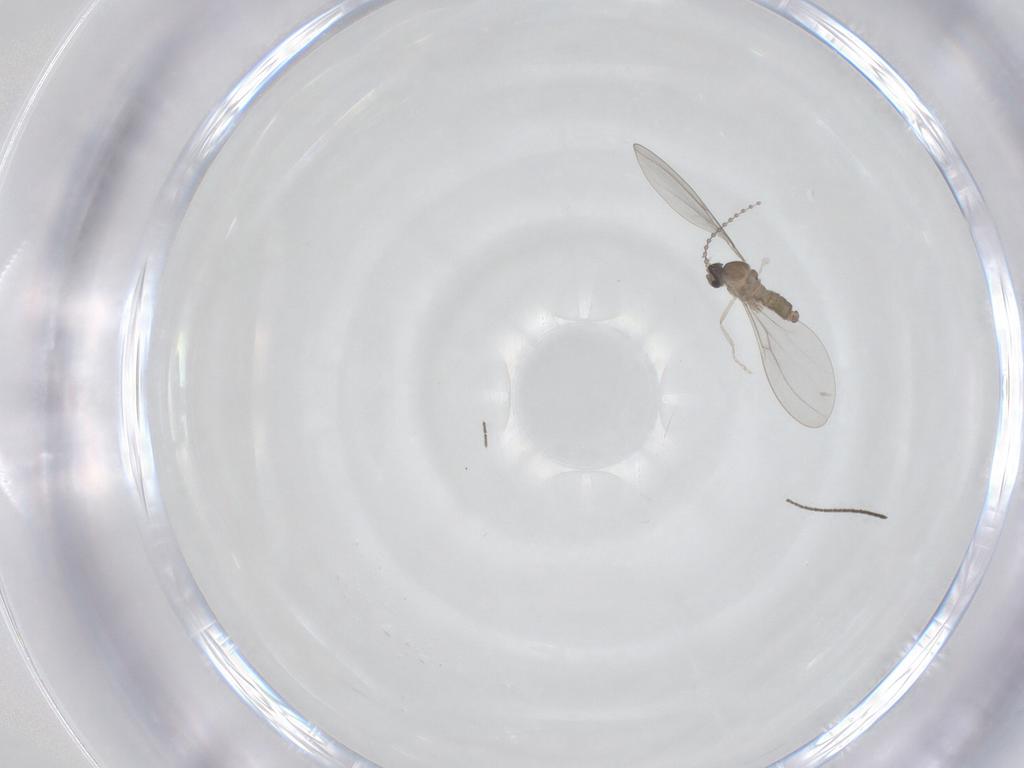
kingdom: Animalia
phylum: Arthropoda
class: Insecta
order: Diptera
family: Cecidomyiidae
